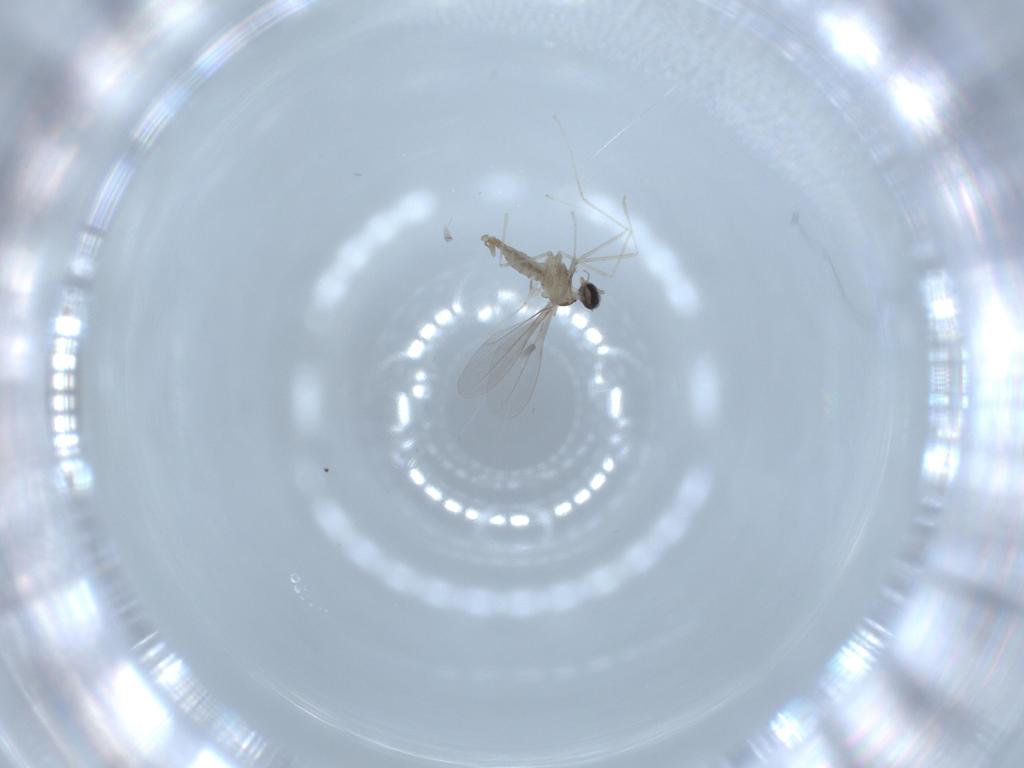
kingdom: Animalia
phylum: Arthropoda
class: Insecta
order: Diptera
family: Cecidomyiidae
